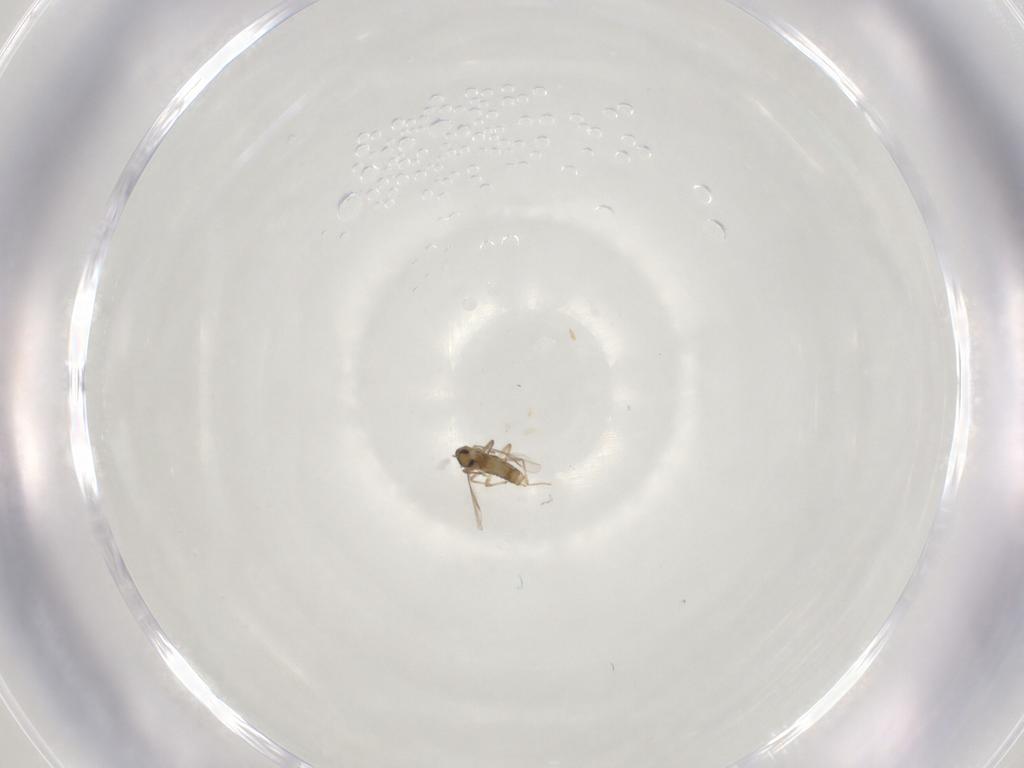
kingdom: Animalia
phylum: Arthropoda
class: Insecta
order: Diptera
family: Chironomidae
